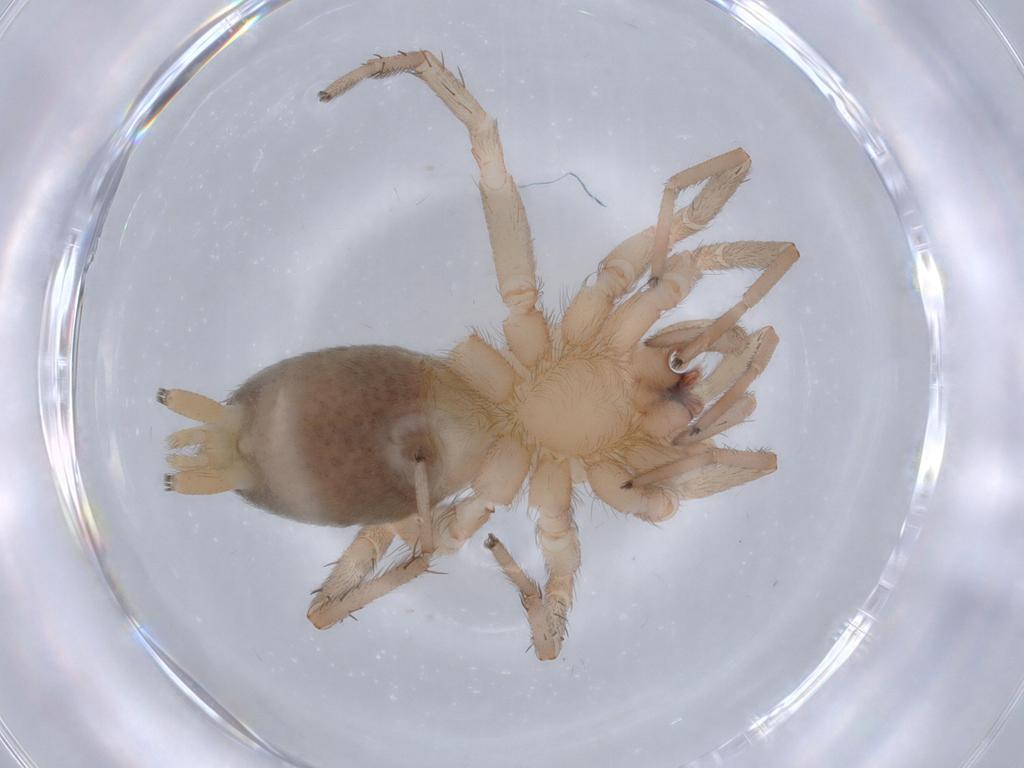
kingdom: Animalia
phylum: Arthropoda
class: Arachnida
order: Araneae
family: Gnaphosidae
